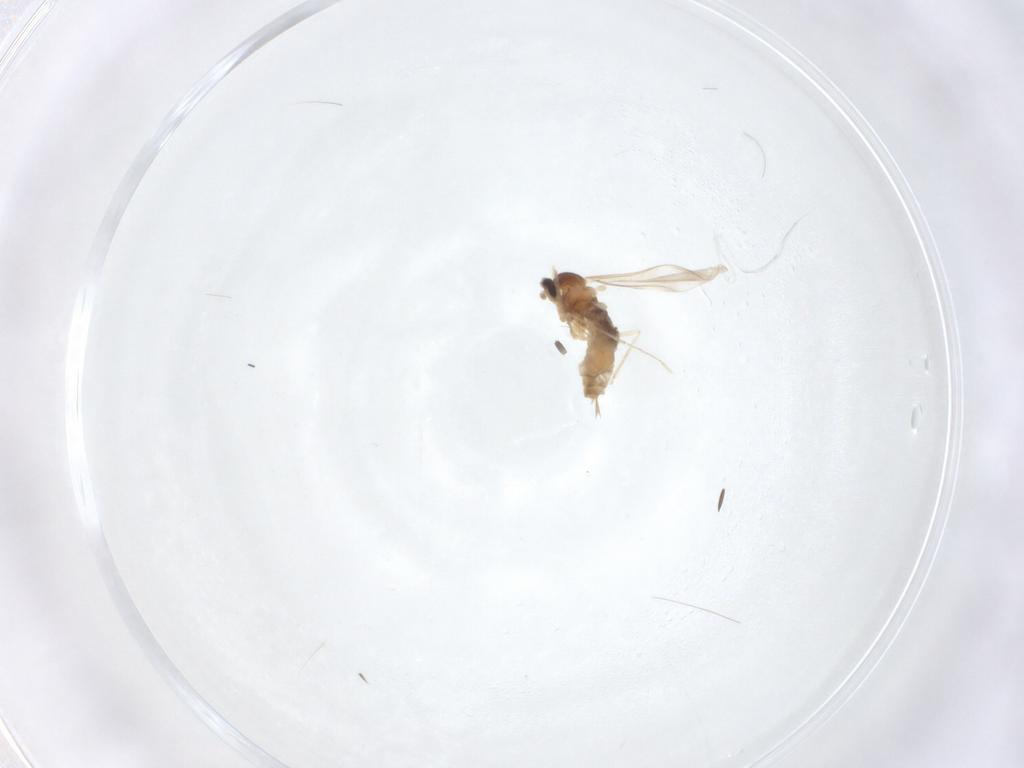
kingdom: Animalia
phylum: Arthropoda
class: Insecta
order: Diptera
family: Cecidomyiidae
